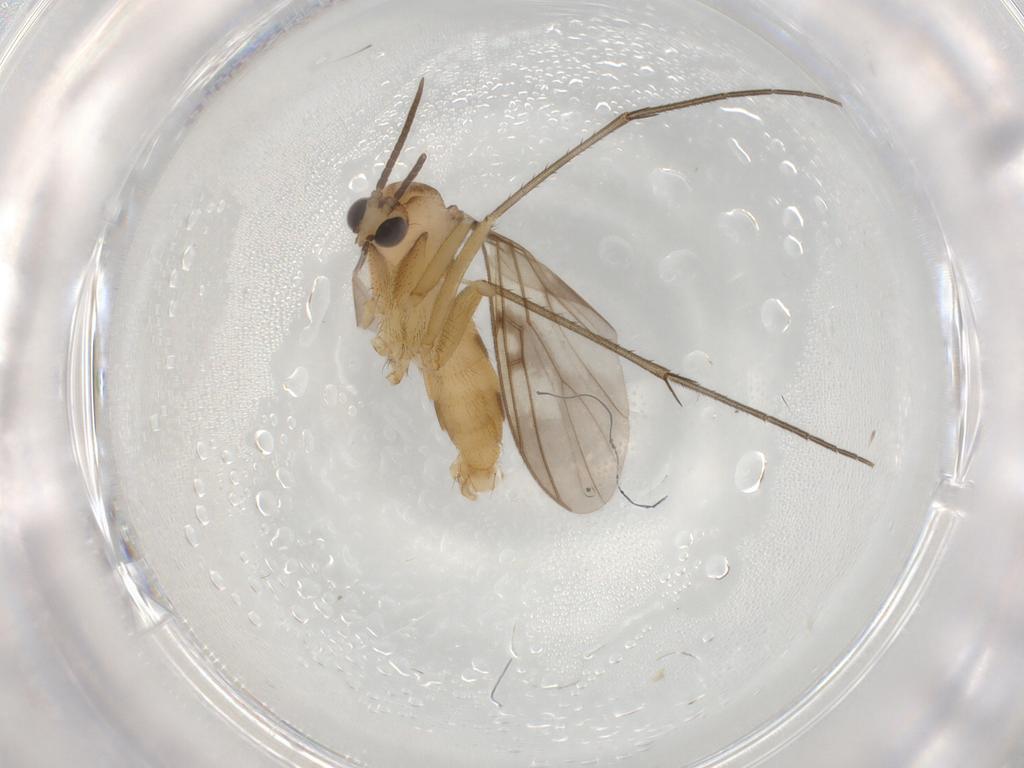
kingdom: Animalia
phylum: Arthropoda
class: Insecta
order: Diptera
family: Mycetophilidae
